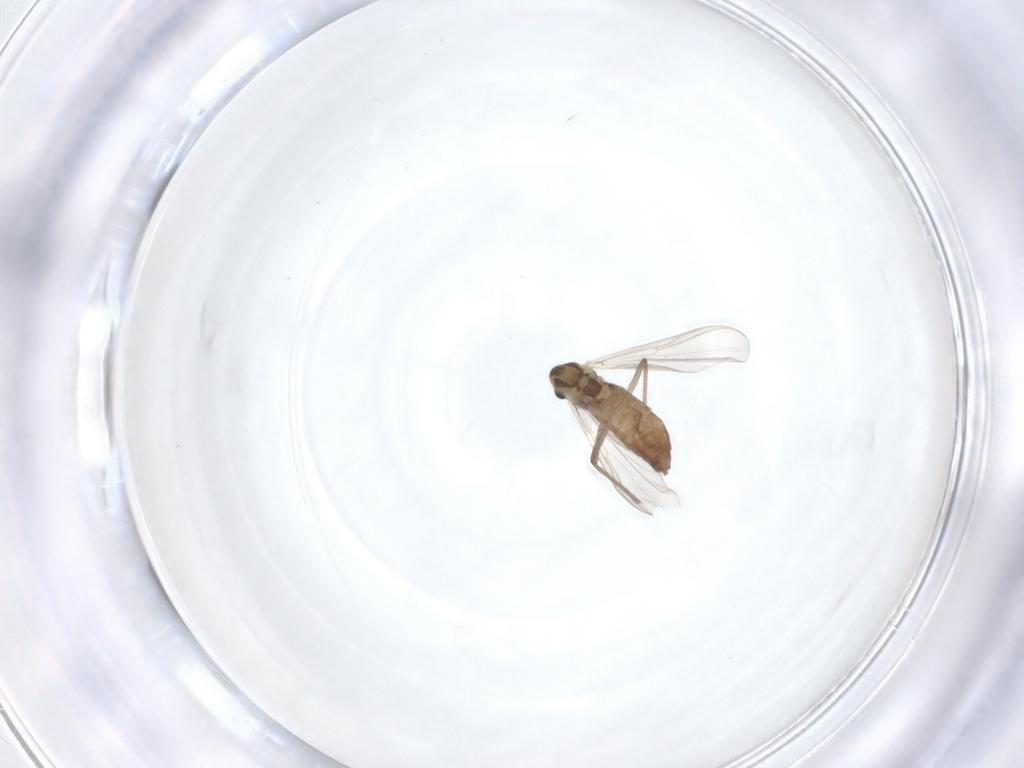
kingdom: Animalia
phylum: Arthropoda
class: Insecta
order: Diptera
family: Chironomidae
